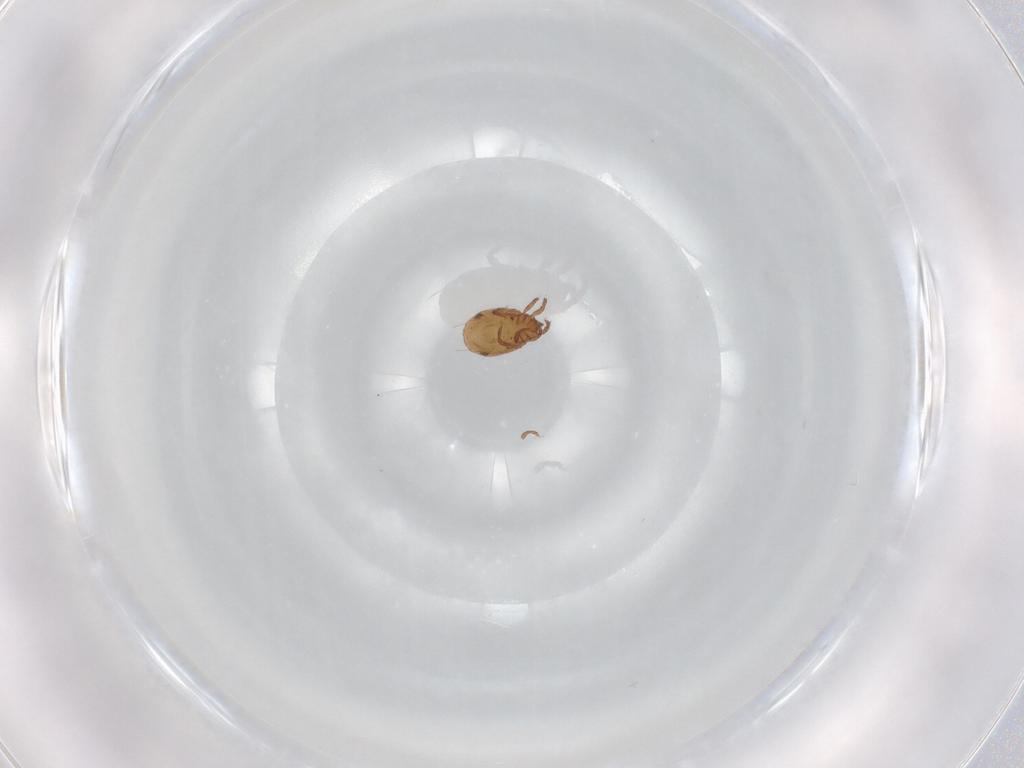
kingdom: Animalia
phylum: Arthropoda
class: Arachnida
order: Sarcoptiformes
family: Phenopelopidae
